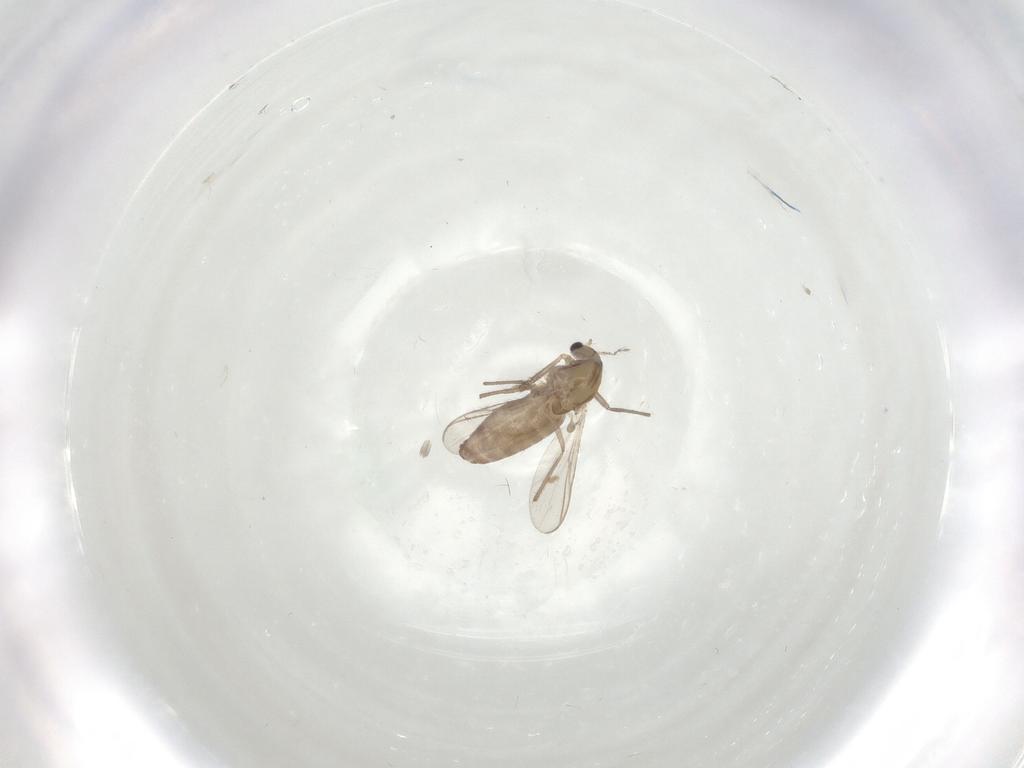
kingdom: Animalia
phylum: Arthropoda
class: Insecta
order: Diptera
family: Chironomidae
